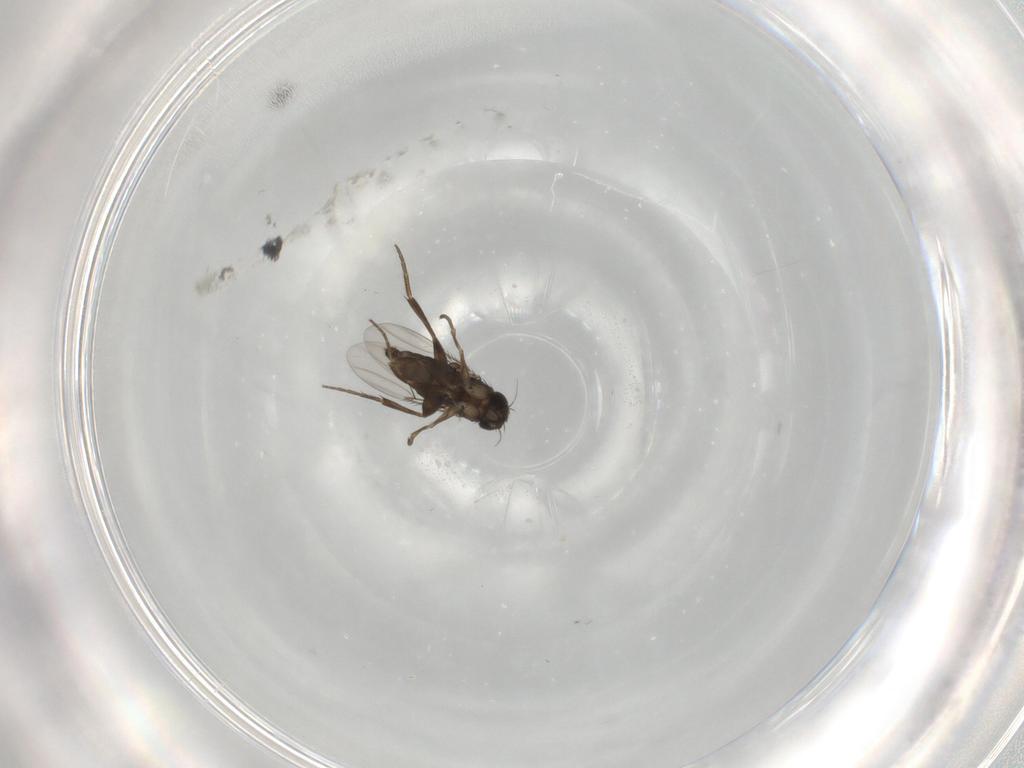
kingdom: Animalia
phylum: Arthropoda
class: Insecta
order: Diptera
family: Phoridae
